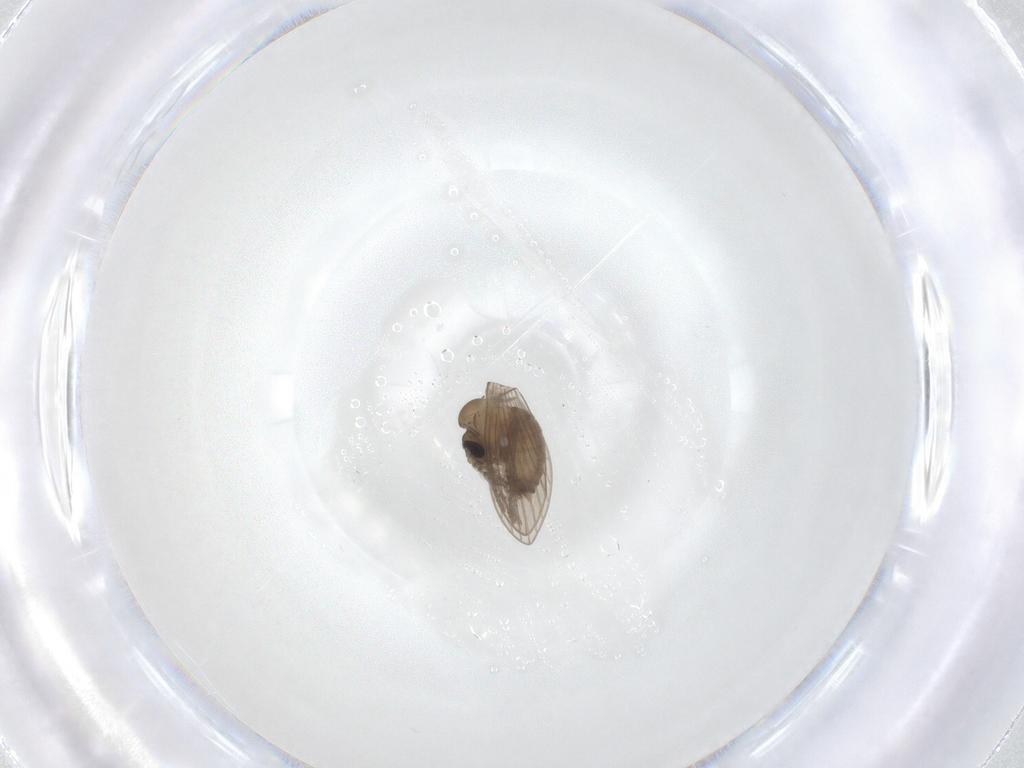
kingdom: Animalia
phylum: Arthropoda
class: Insecta
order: Diptera
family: Psychodidae
